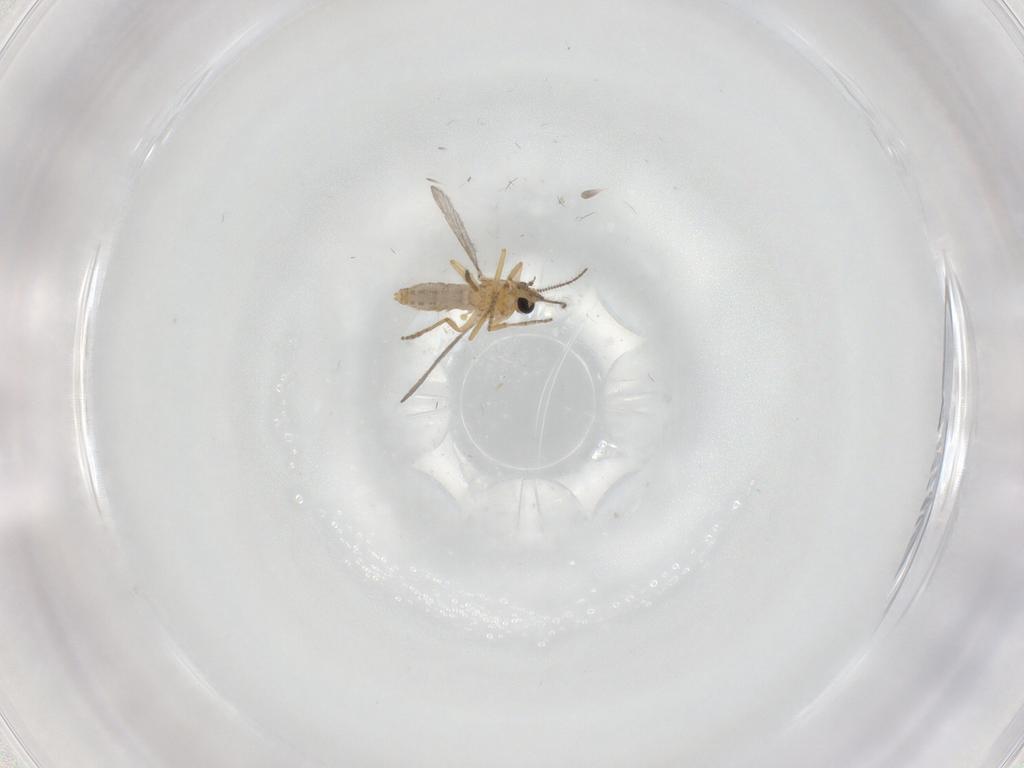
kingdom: Animalia
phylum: Arthropoda
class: Insecta
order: Diptera
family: Ceratopogonidae
